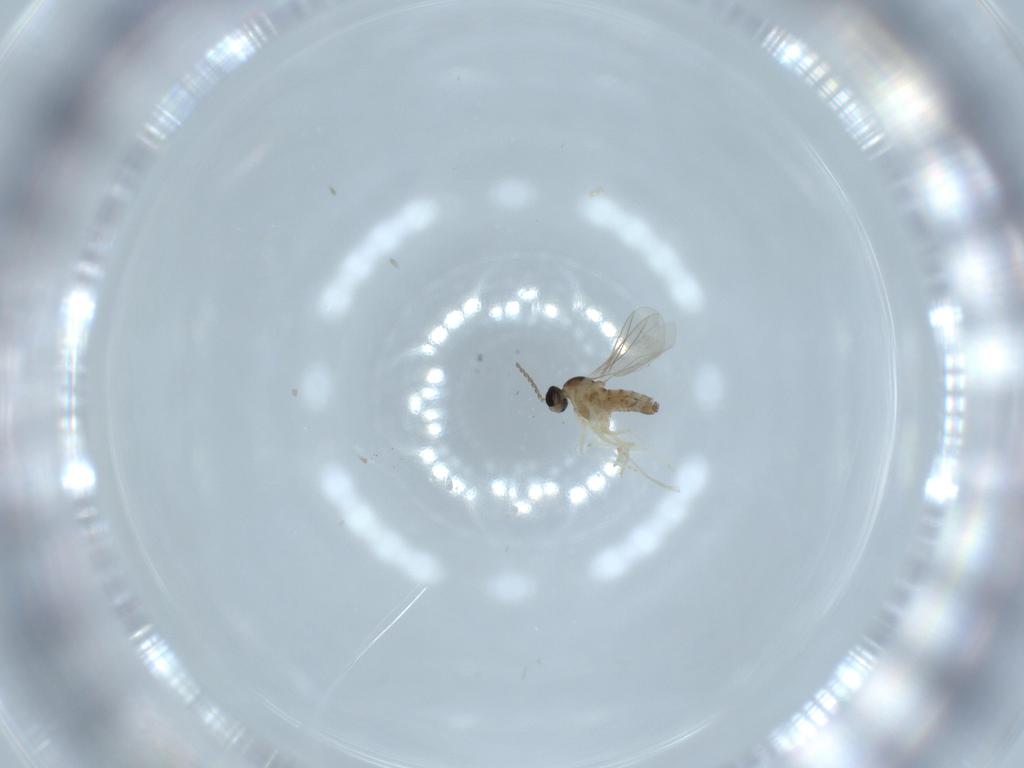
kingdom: Animalia
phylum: Arthropoda
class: Insecta
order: Diptera
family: Cecidomyiidae
